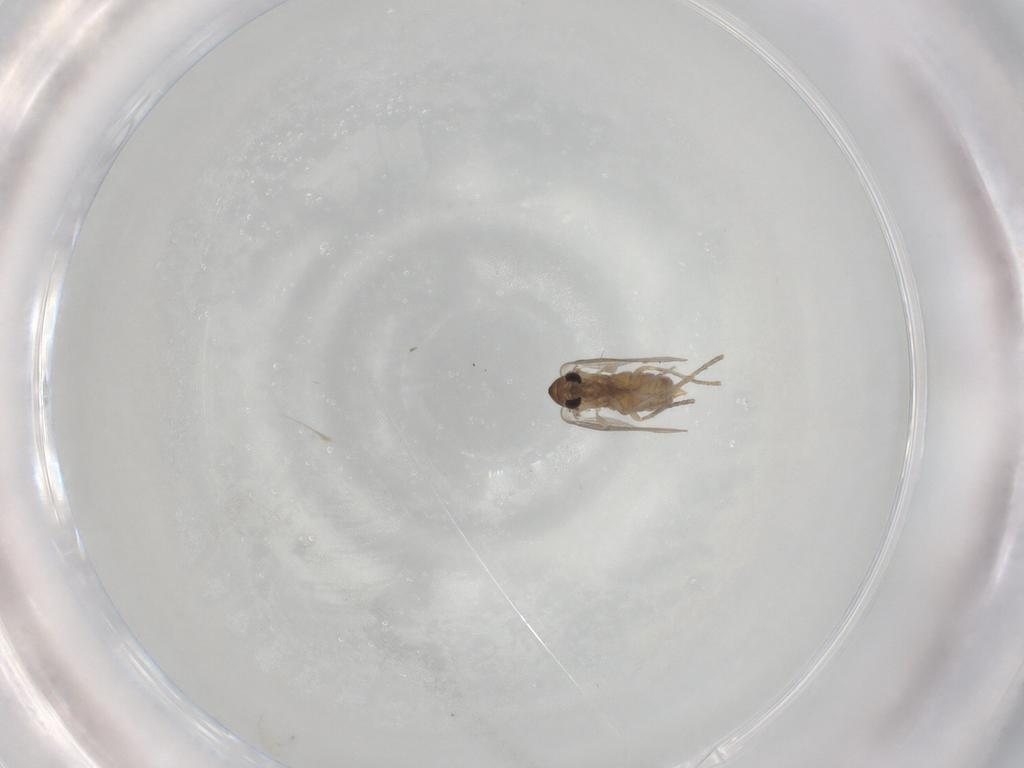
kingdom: Animalia
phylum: Arthropoda
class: Insecta
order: Diptera
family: Psychodidae
